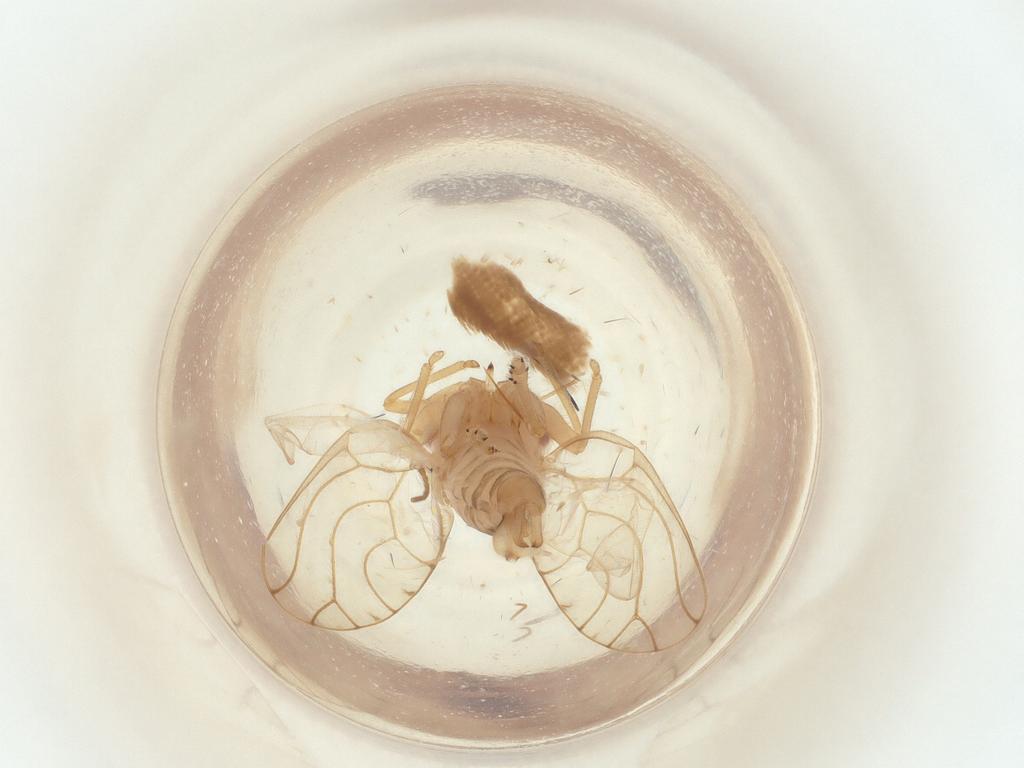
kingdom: Animalia
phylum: Arthropoda
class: Insecta
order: Lepidoptera
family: Crambidae
